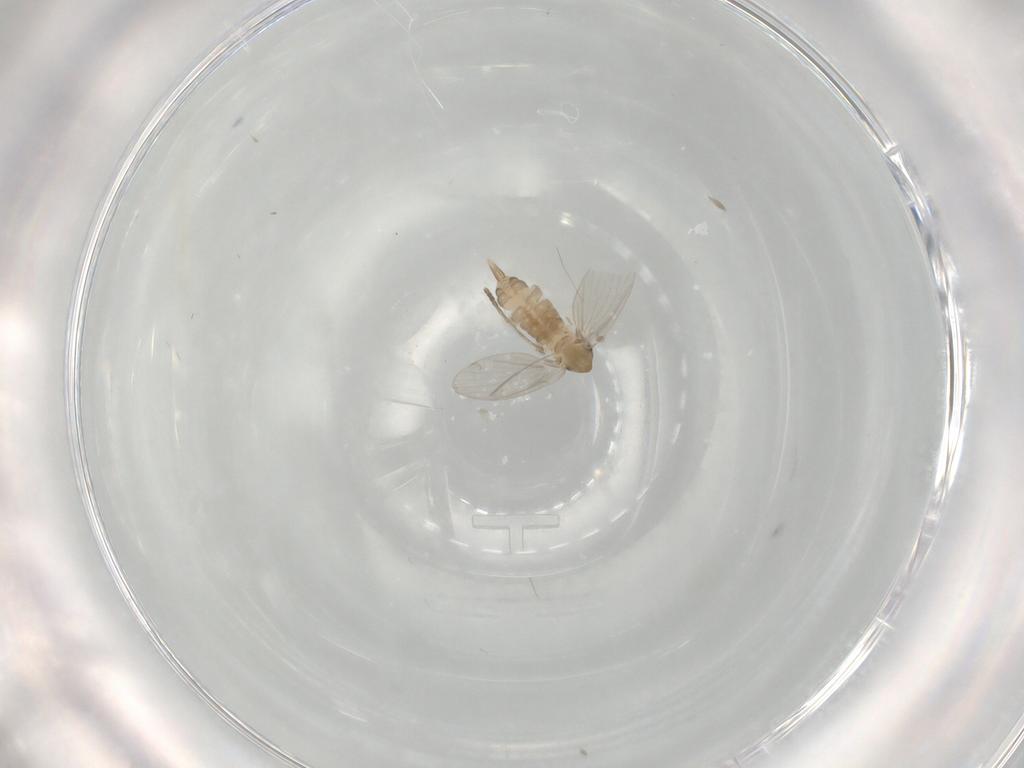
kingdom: Animalia
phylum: Arthropoda
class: Insecta
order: Diptera
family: Psychodidae
